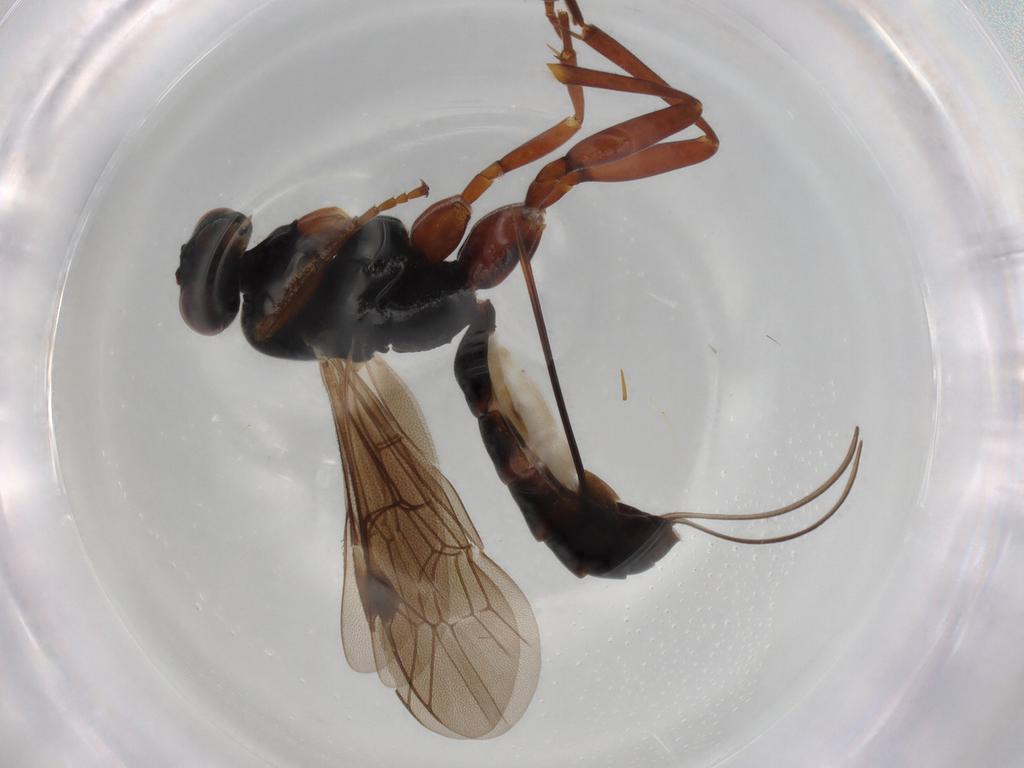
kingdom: Animalia
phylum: Arthropoda
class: Insecta
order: Hymenoptera
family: Ichneumonidae
